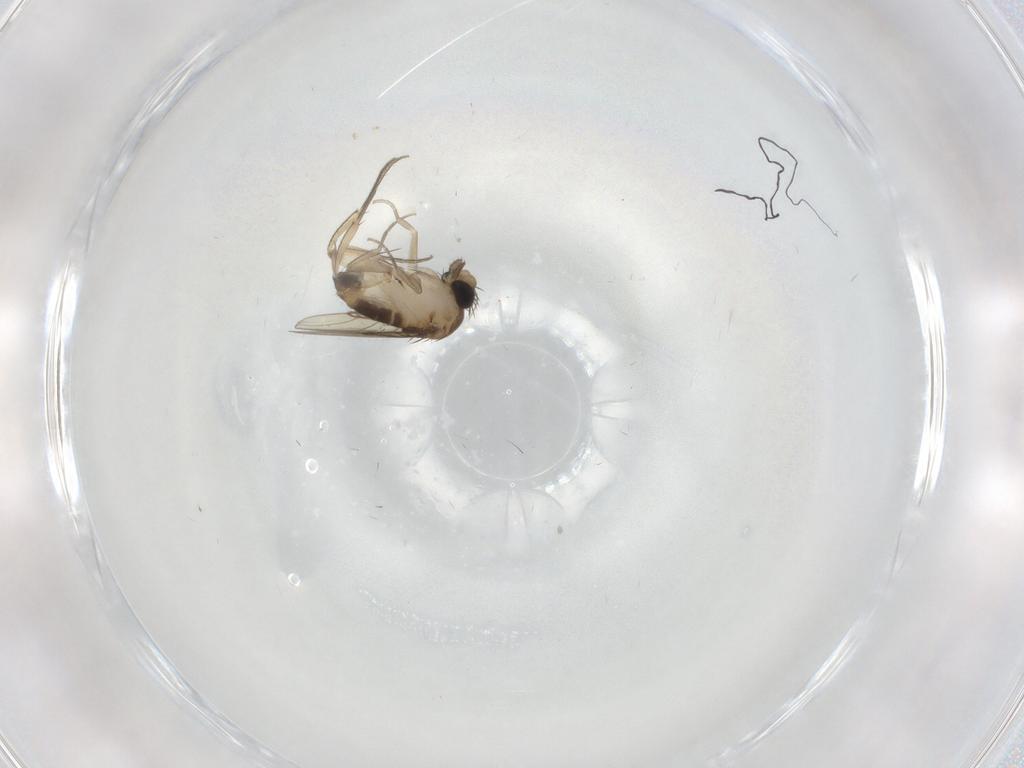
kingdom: Animalia
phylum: Arthropoda
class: Insecta
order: Diptera
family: Phoridae
